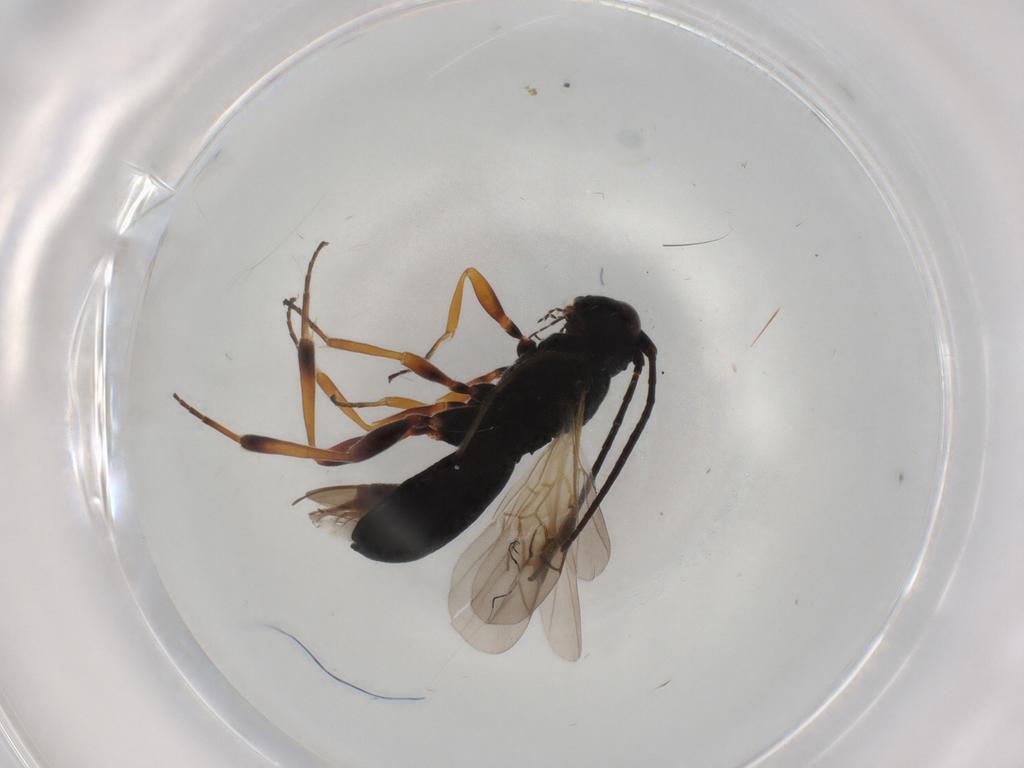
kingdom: Animalia
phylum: Arthropoda
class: Insecta
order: Hymenoptera
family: Braconidae
